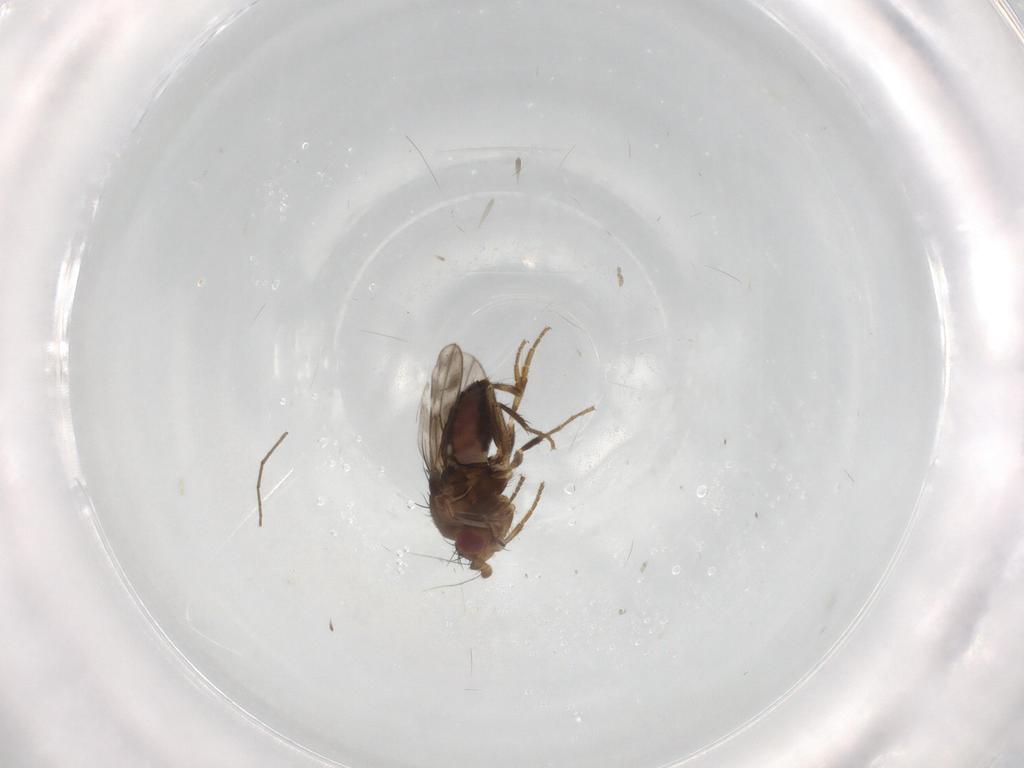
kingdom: Animalia
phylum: Arthropoda
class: Insecta
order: Diptera
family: Sphaeroceridae
